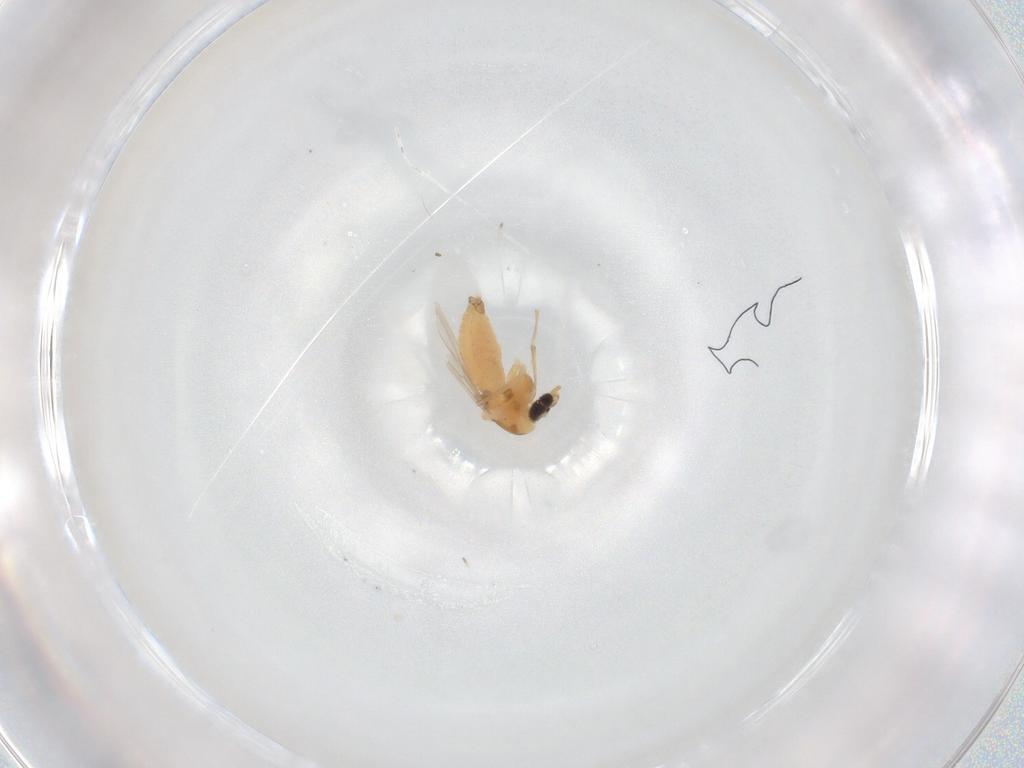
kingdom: Animalia
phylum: Arthropoda
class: Insecta
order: Diptera
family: Chironomidae
